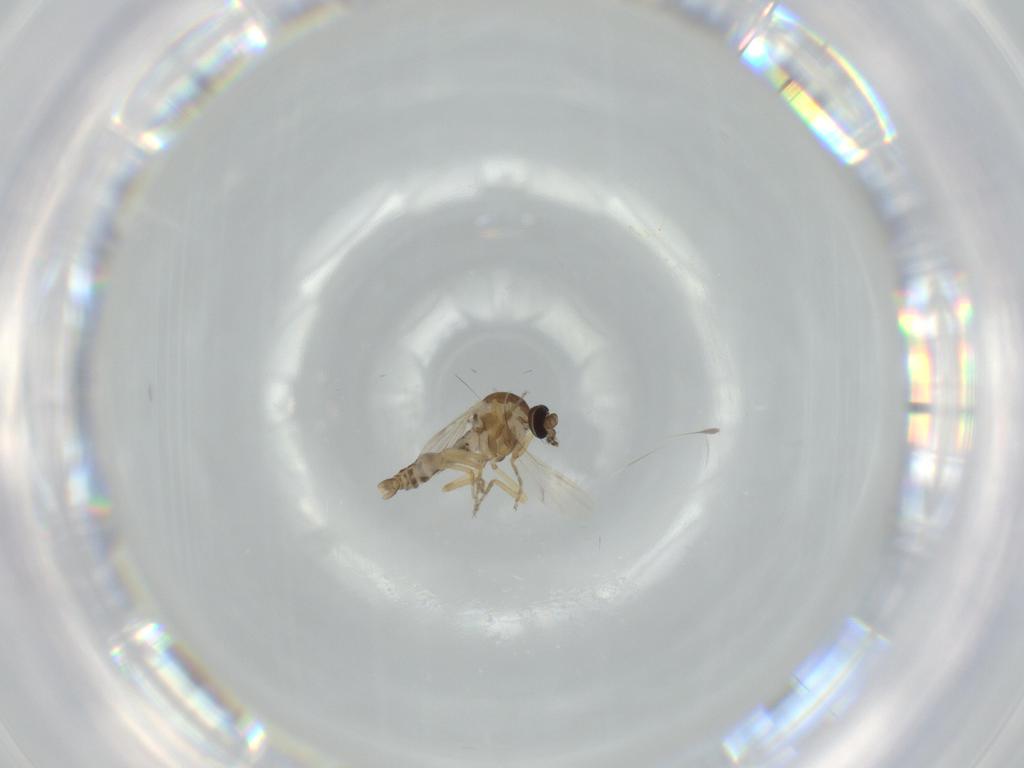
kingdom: Animalia
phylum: Arthropoda
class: Insecta
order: Diptera
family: Ceratopogonidae
